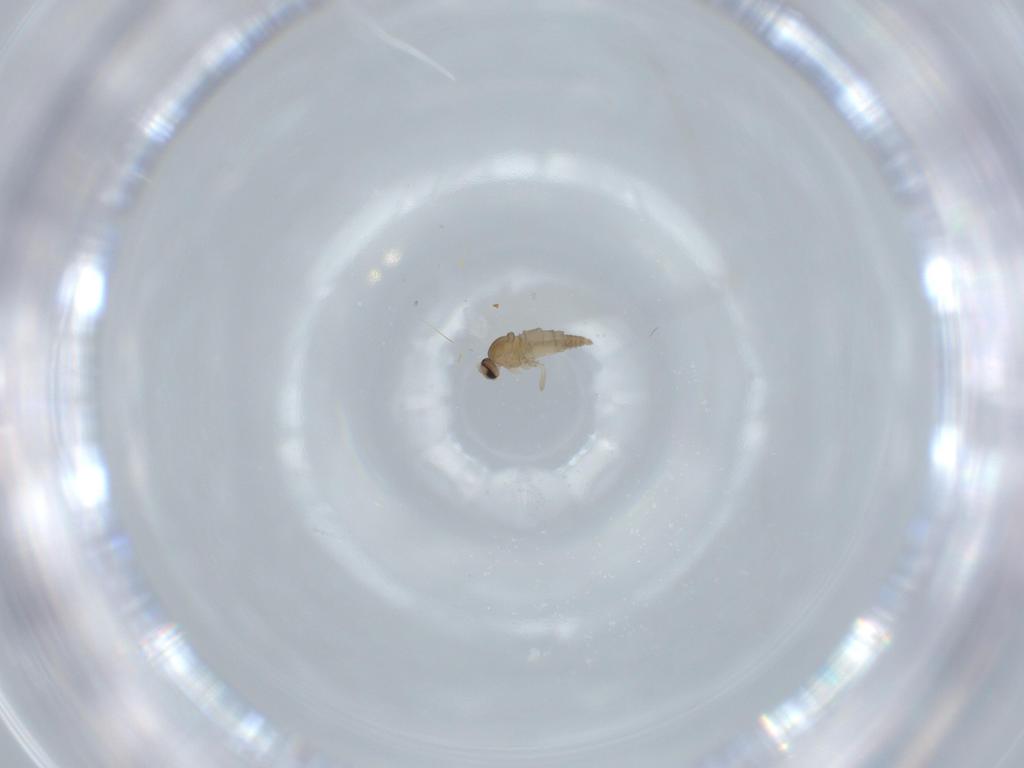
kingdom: Animalia
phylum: Arthropoda
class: Insecta
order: Diptera
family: Cecidomyiidae
